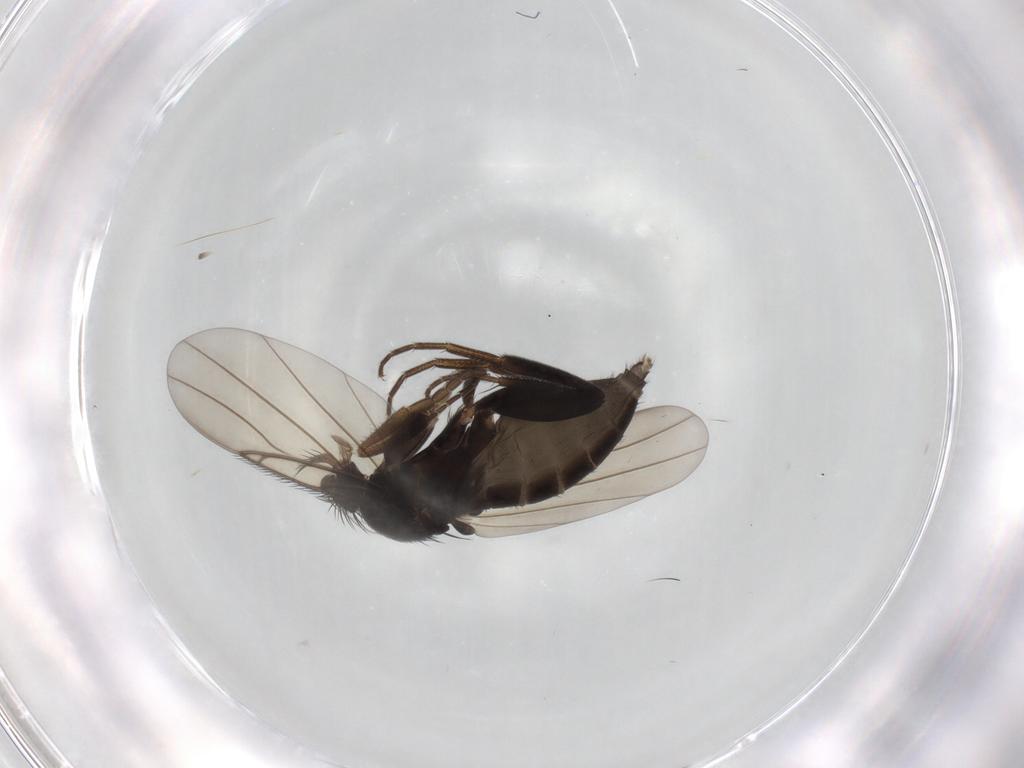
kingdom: Animalia
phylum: Arthropoda
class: Insecta
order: Diptera
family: Phoridae
